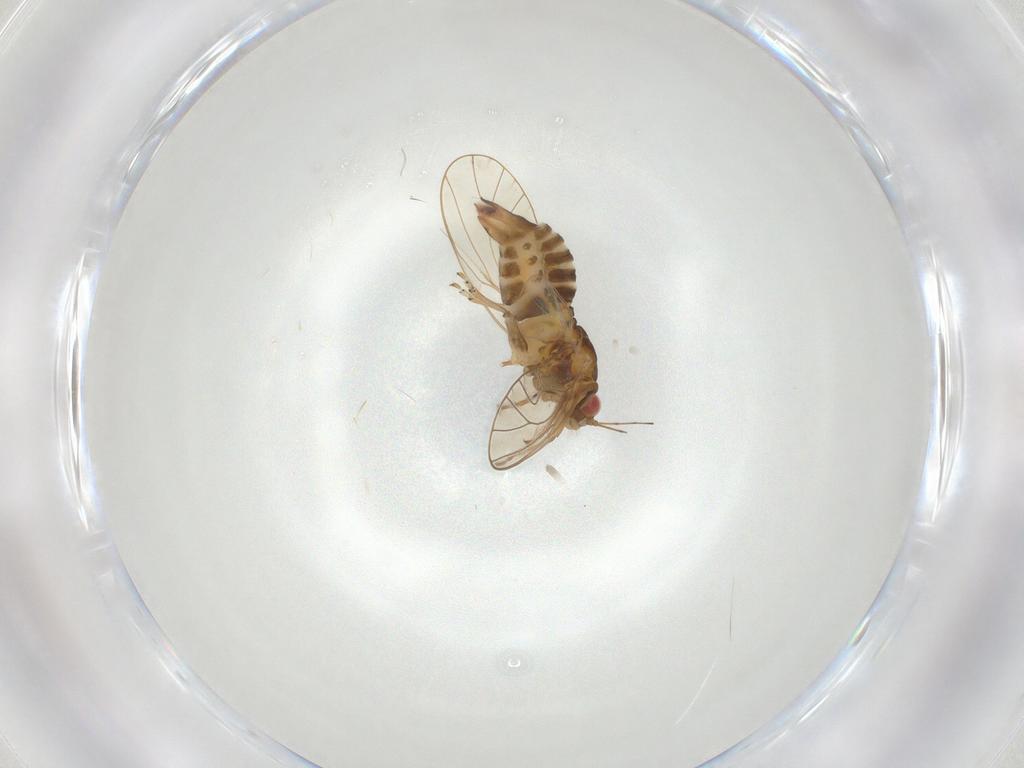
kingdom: Animalia
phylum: Arthropoda
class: Insecta
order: Hemiptera
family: Psyllidae
